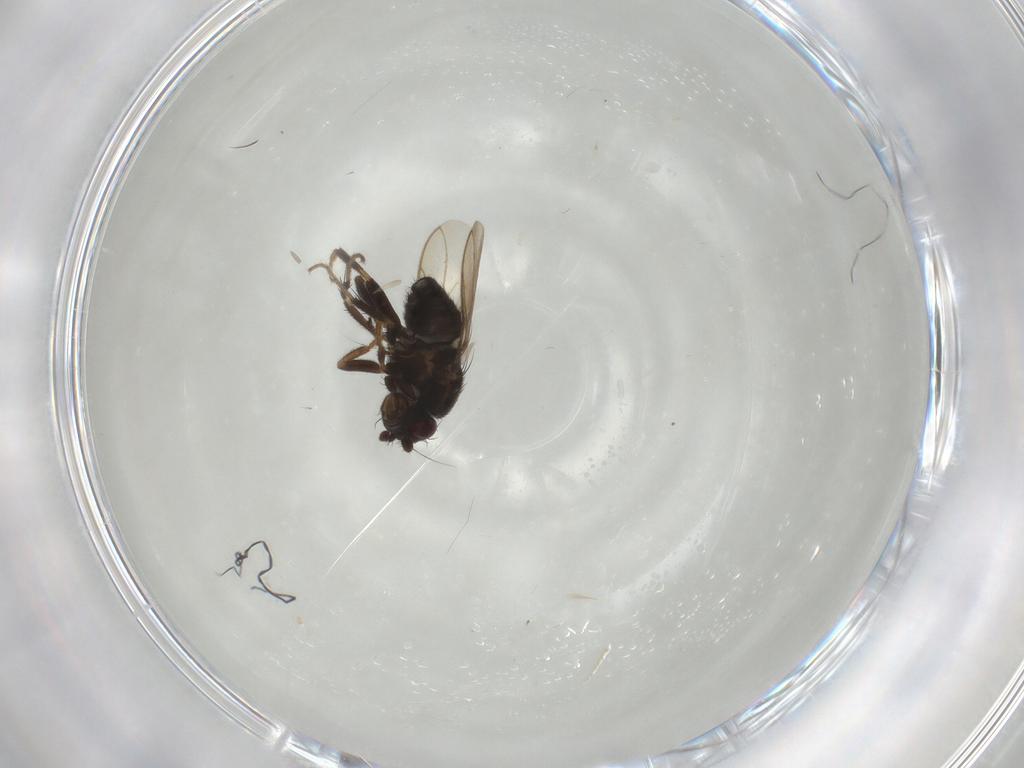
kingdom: Animalia
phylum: Arthropoda
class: Insecta
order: Diptera
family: Sphaeroceridae
